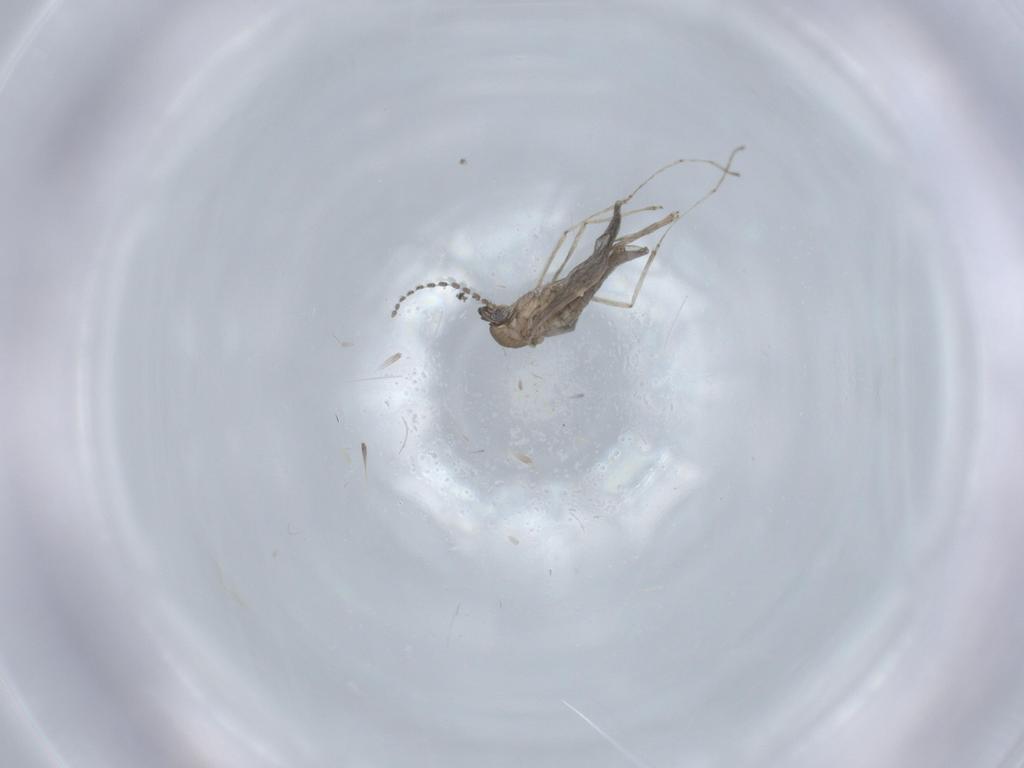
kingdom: Animalia
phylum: Arthropoda
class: Insecta
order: Diptera
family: Cecidomyiidae
